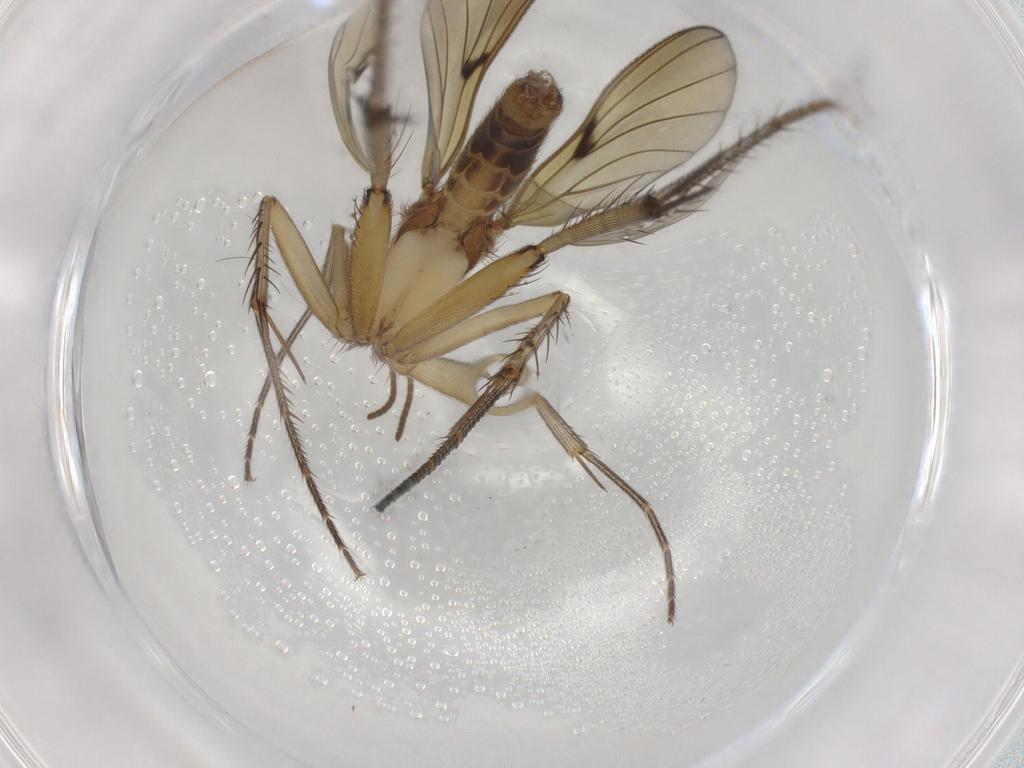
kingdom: Animalia
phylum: Arthropoda
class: Insecta
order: Diptera
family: Mycetophilidae
